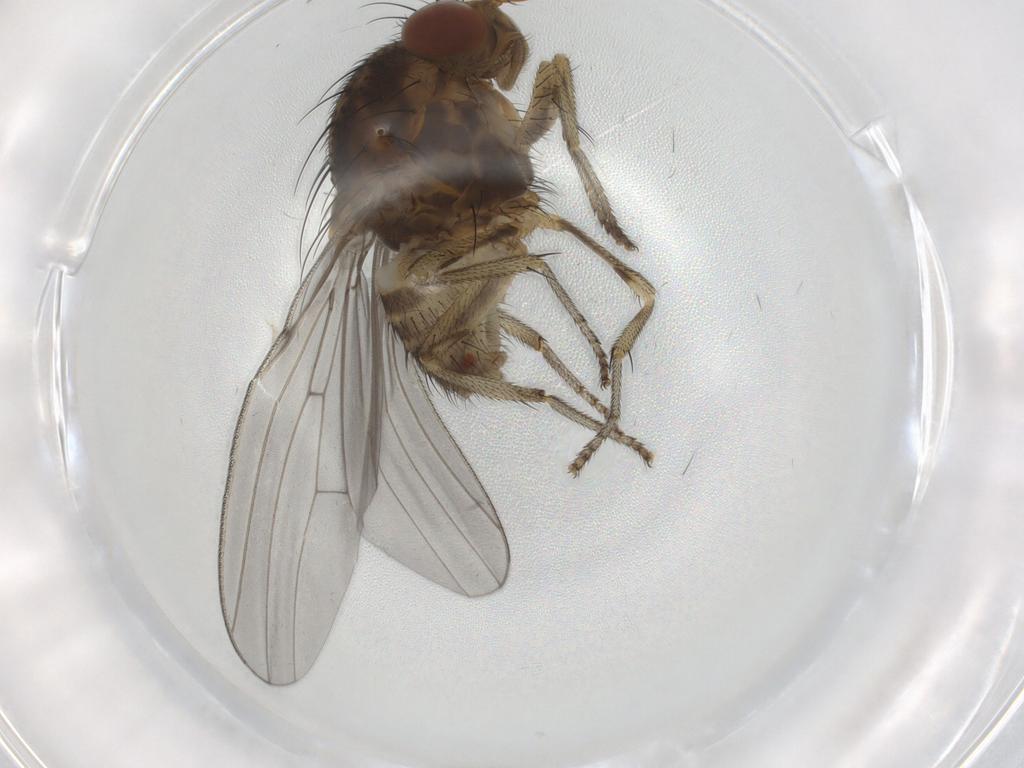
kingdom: Animalia
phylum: Arthropoda
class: Insecta
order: Diptera
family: Lauxaniidae
